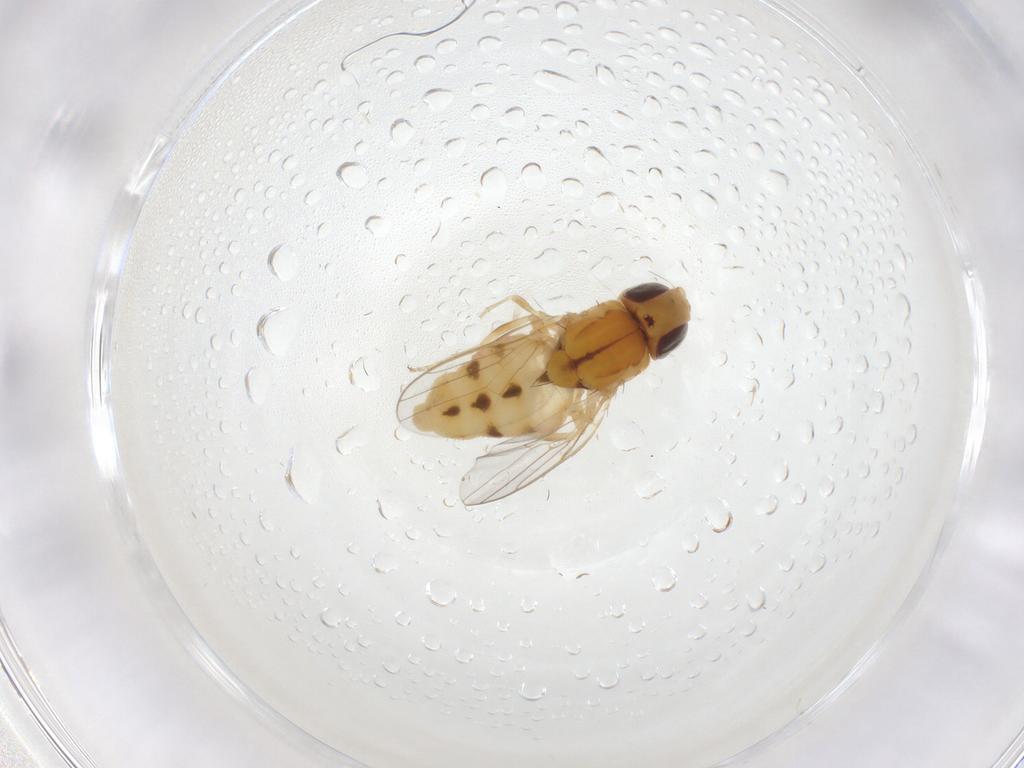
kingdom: Animalia
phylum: Arthropoda
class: Insecta
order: Diptera
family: Chloropidae
